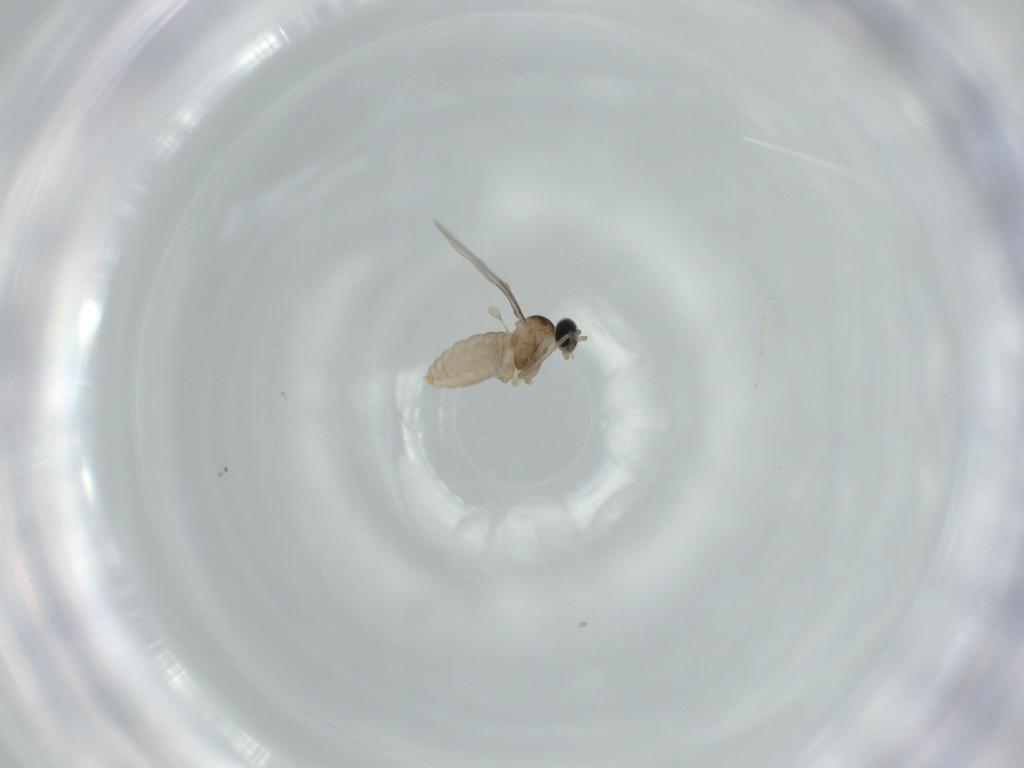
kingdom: Animalia
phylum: Arthropoda
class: Insecta
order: Diptera
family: Cecidomyiidae
